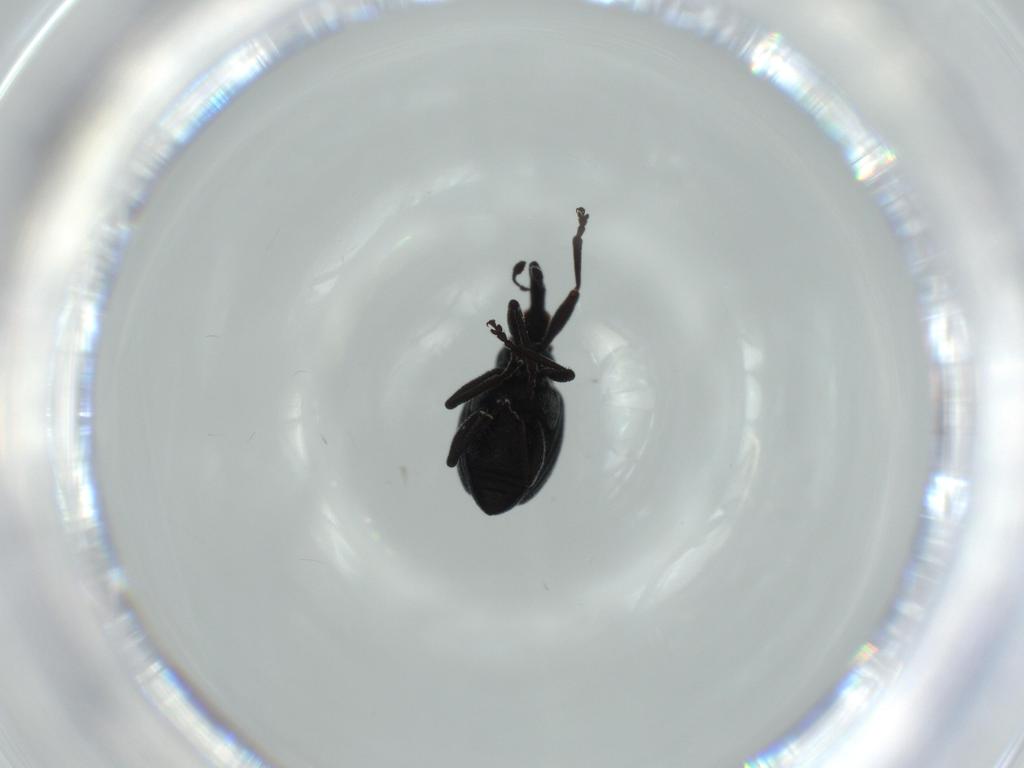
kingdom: Animalia
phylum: Arthropoda
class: Insecta
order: Coleoptera
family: Brentidae
